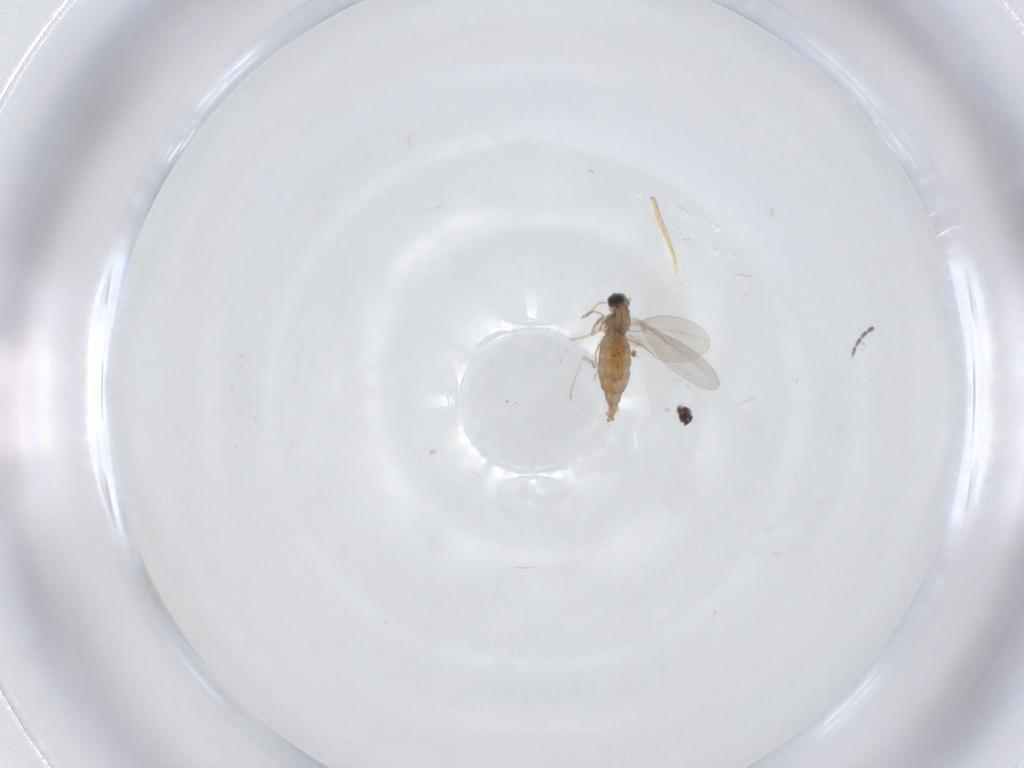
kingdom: Animalia
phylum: Arthropoda
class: Insecta
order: Diptera
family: Cecidomyiidae
